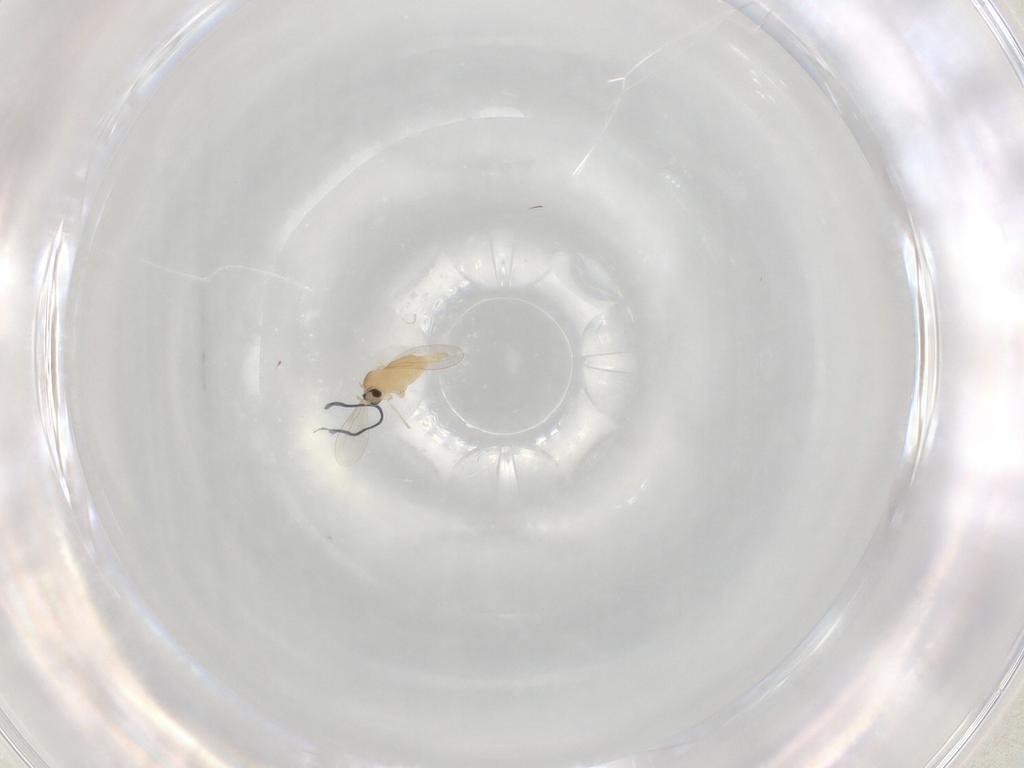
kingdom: Animalia
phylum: Arthropoda
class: Insecta
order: Diptera
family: Cecidomyiidae
